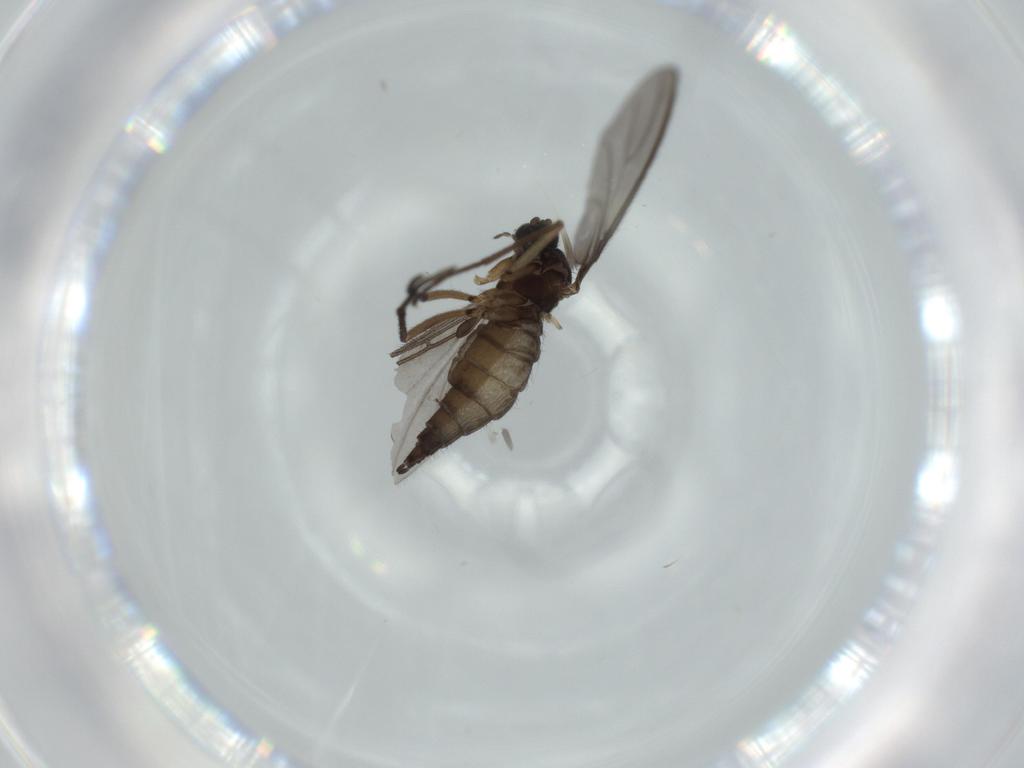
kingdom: Animalia
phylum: Arthropoda
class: Insecta
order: Diptera
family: Sciaridae
